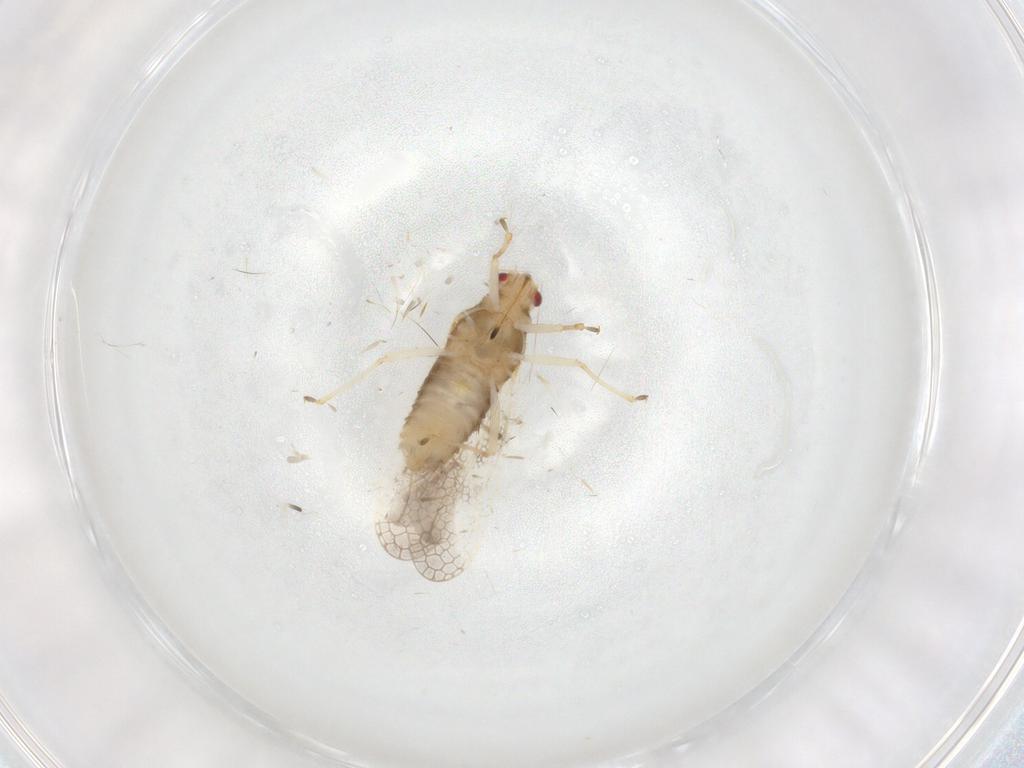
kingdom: Animalia
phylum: Arthropoda
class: Insecta
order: Hemiptera
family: Tingidae
